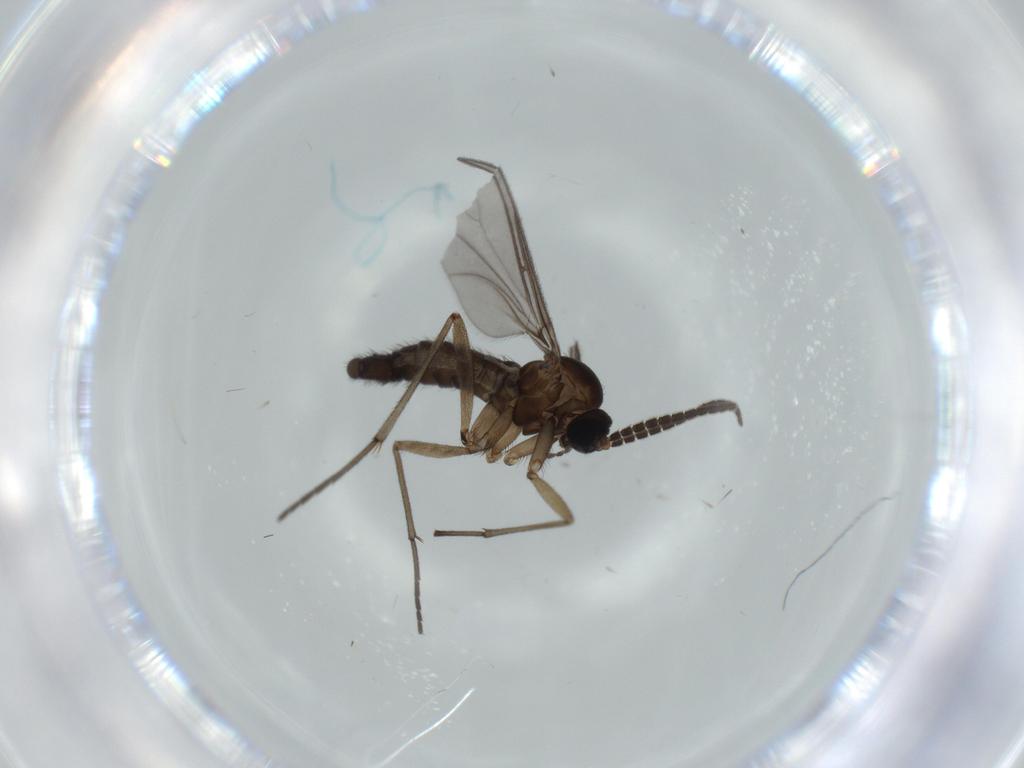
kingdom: Animalia
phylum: Arthropoda
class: Insecta
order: Diptera
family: Sciaridae
